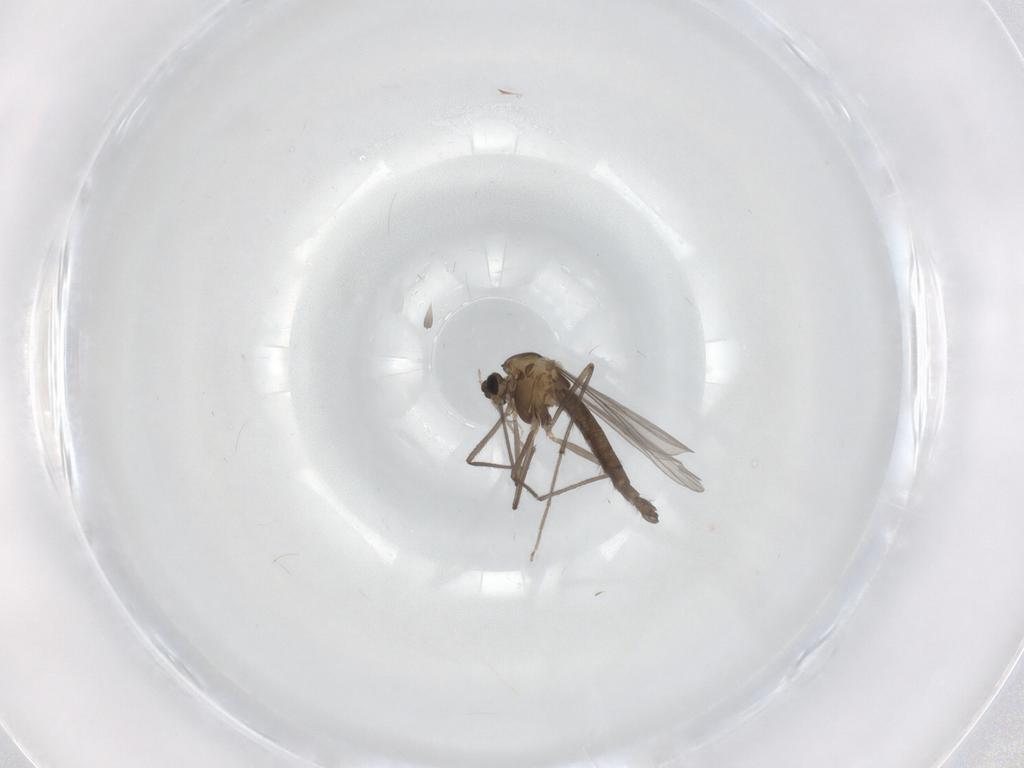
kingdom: Animalia
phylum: Arthropoda
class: Insecta
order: Diptera
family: Chironomidae
